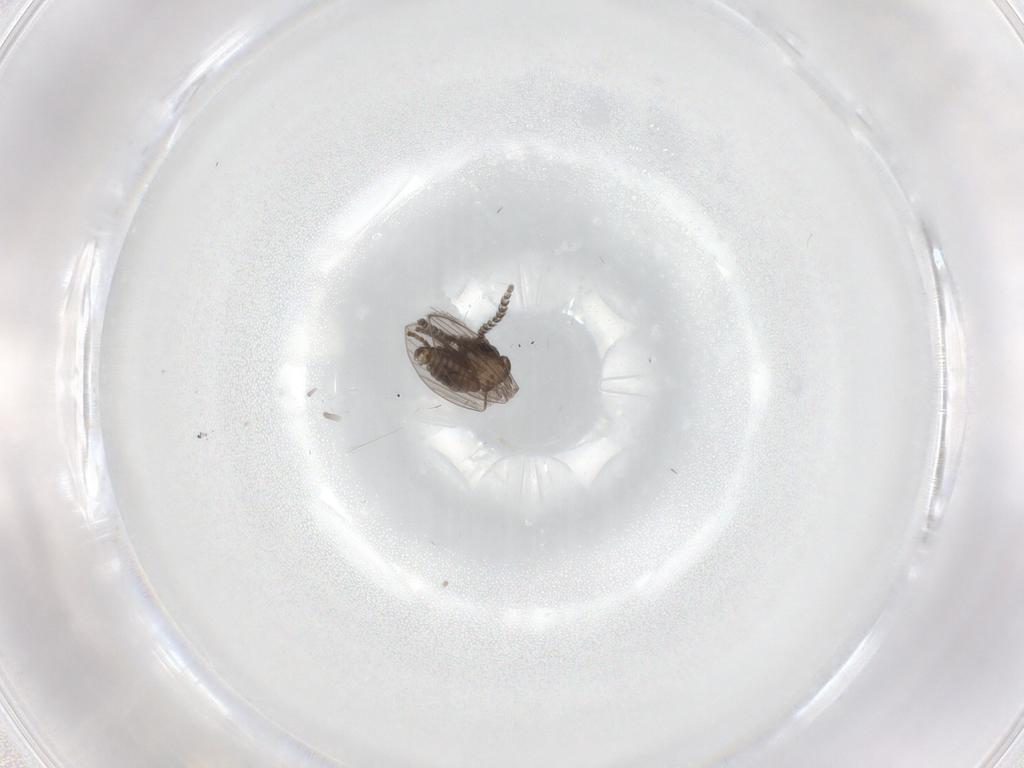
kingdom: Animalia
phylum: Arthropoda
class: Insecta
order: Diptera
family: Psychodidae
